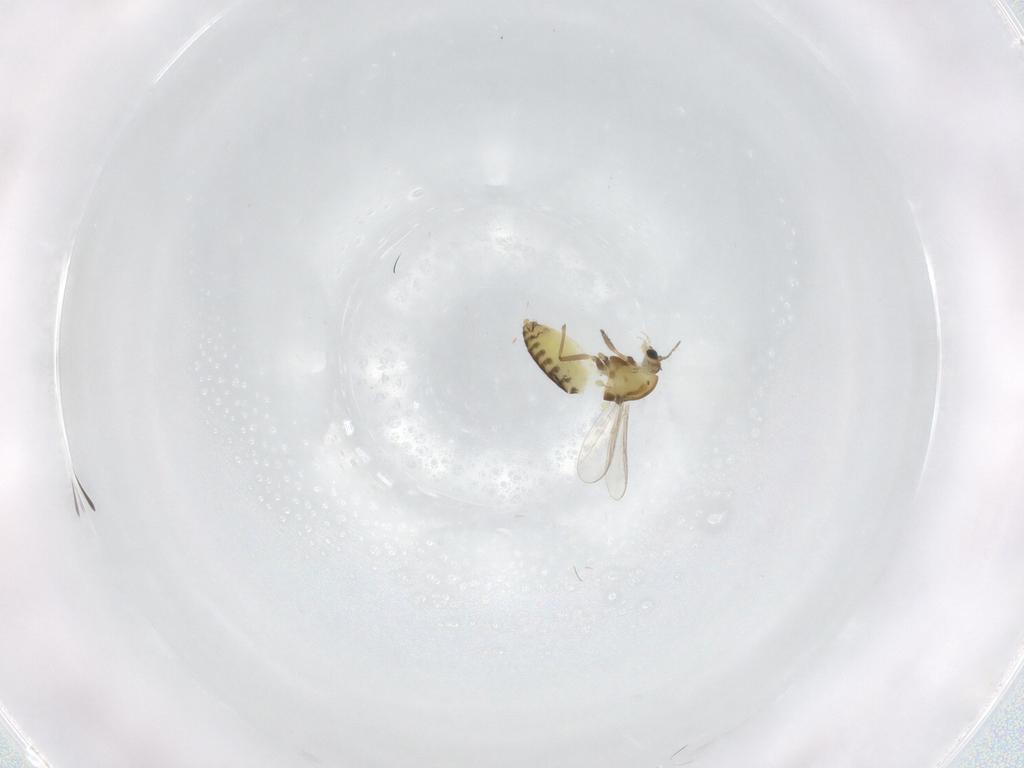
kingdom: Animalia
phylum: Arthropoda
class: Insecta
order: Diptera
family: Chironomidae
